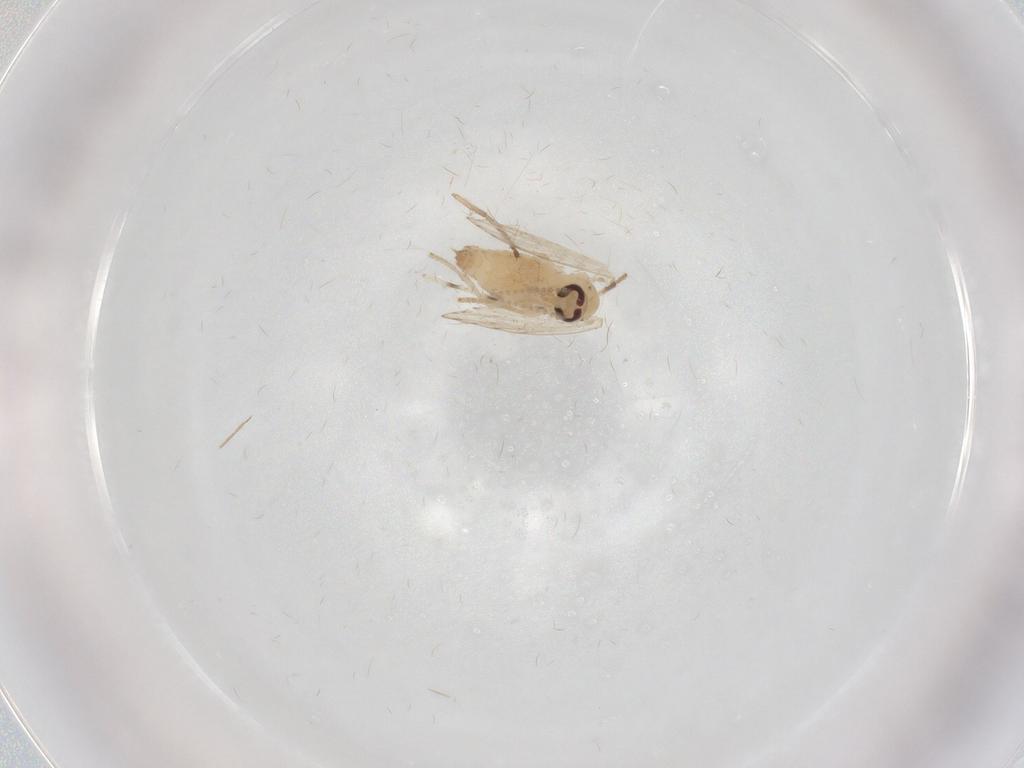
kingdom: Animalia
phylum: Arthropoda
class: Insecta
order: Diptera
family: Psychodidae
